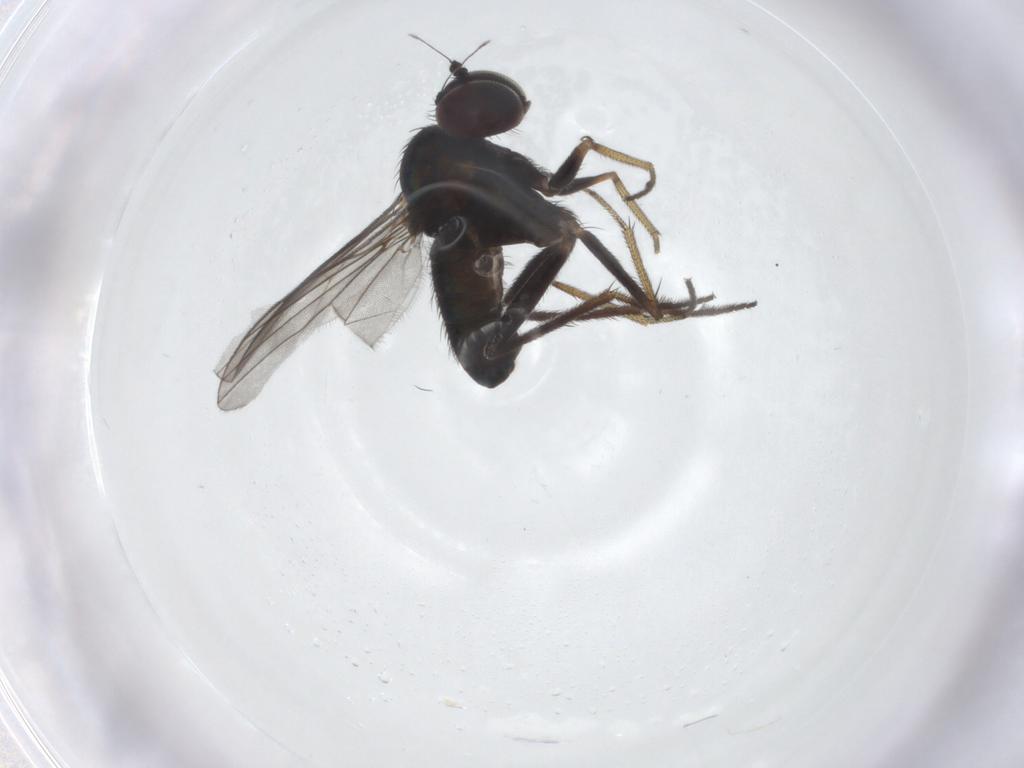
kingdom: Animalia
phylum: Arthropoda
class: Insecta
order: Diptera
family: Dolichopodidae
